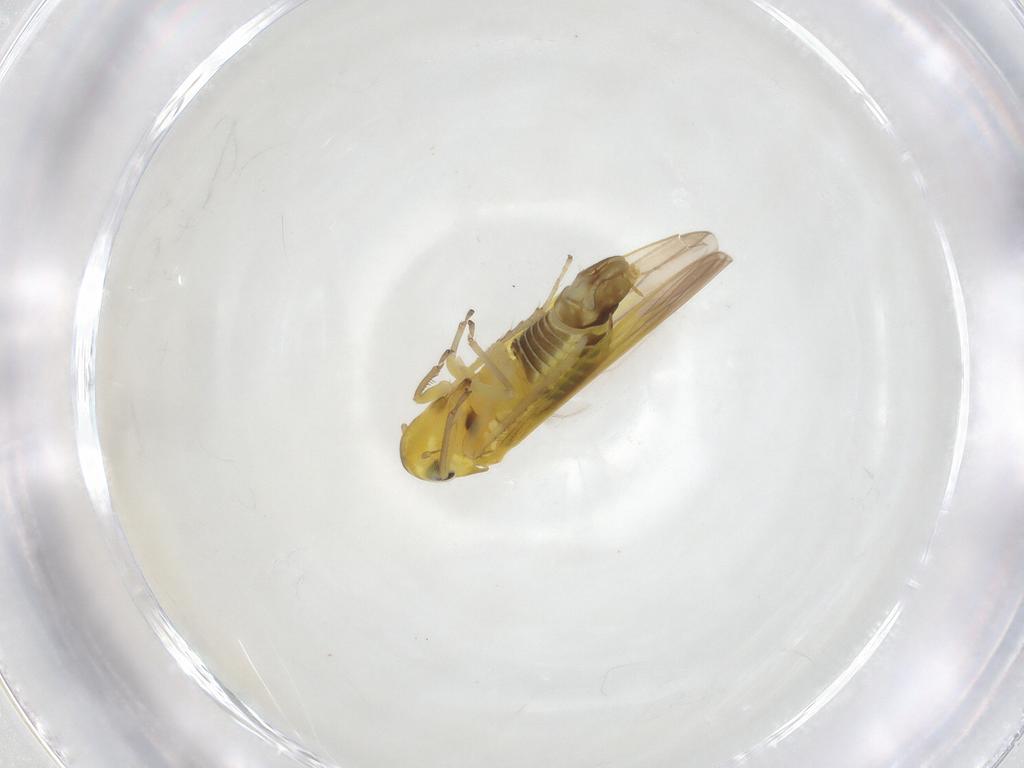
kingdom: Animalia
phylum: Arthropoda
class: Insecta
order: Hemiptera
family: Cicadellidae
